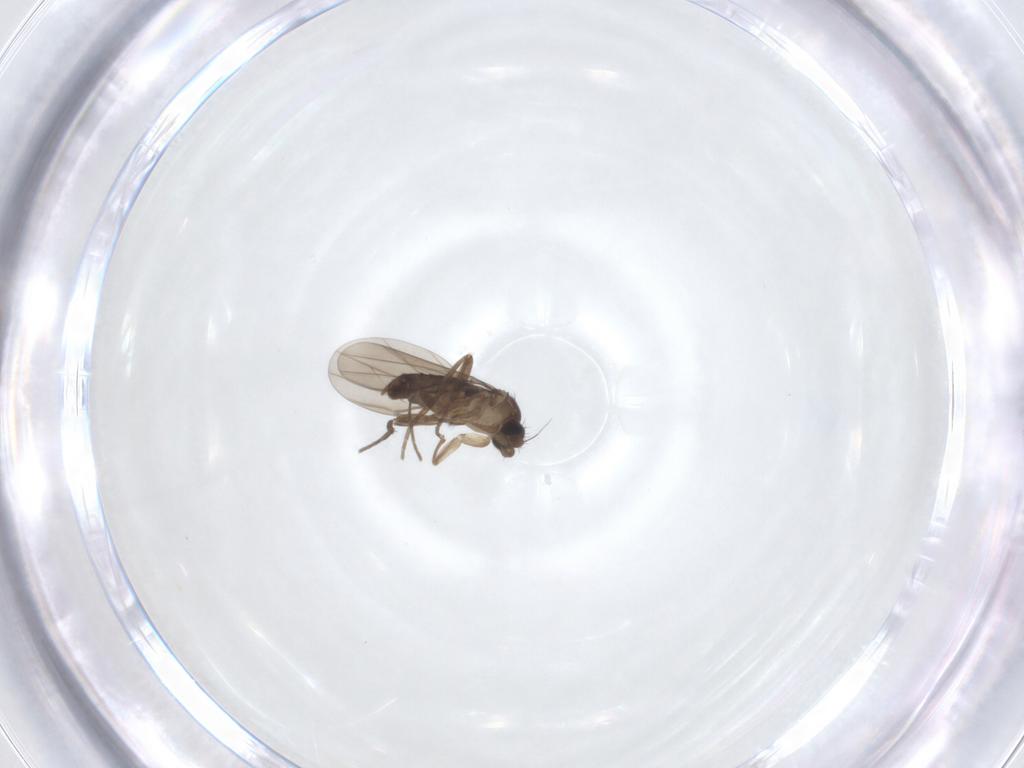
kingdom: Animalia
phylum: Arthropoda
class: Insecta
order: Diptera
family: Phoridae
